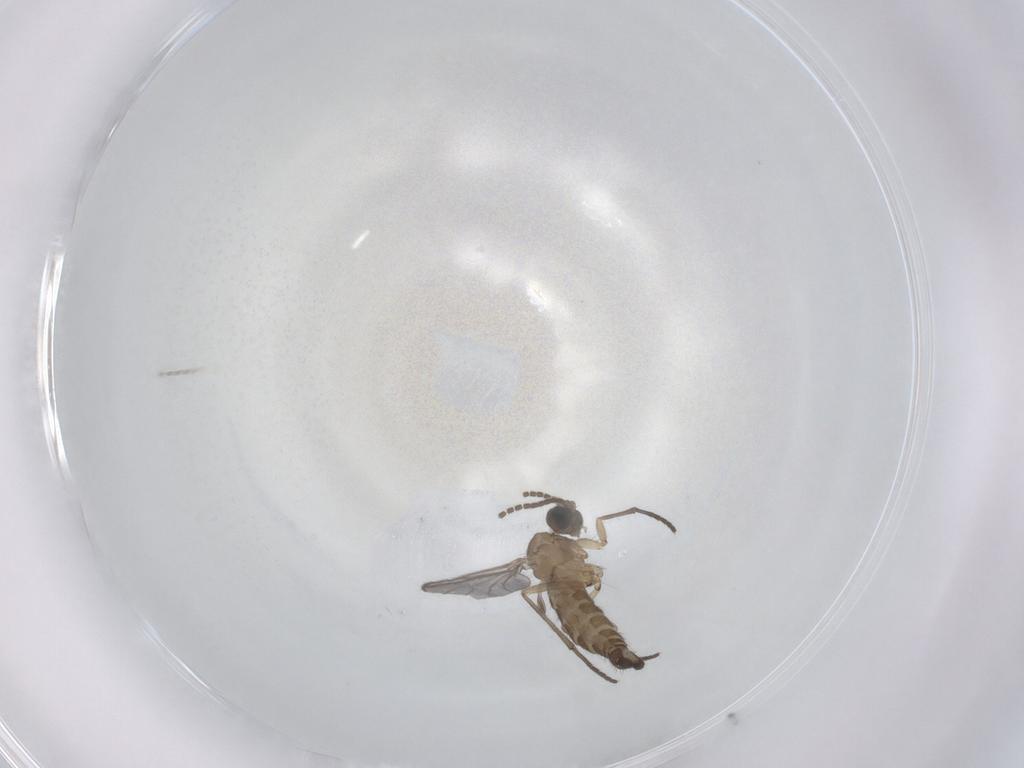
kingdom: Animalia
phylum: Arthropoda
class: Insecta
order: Diptera
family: Sciaridae
